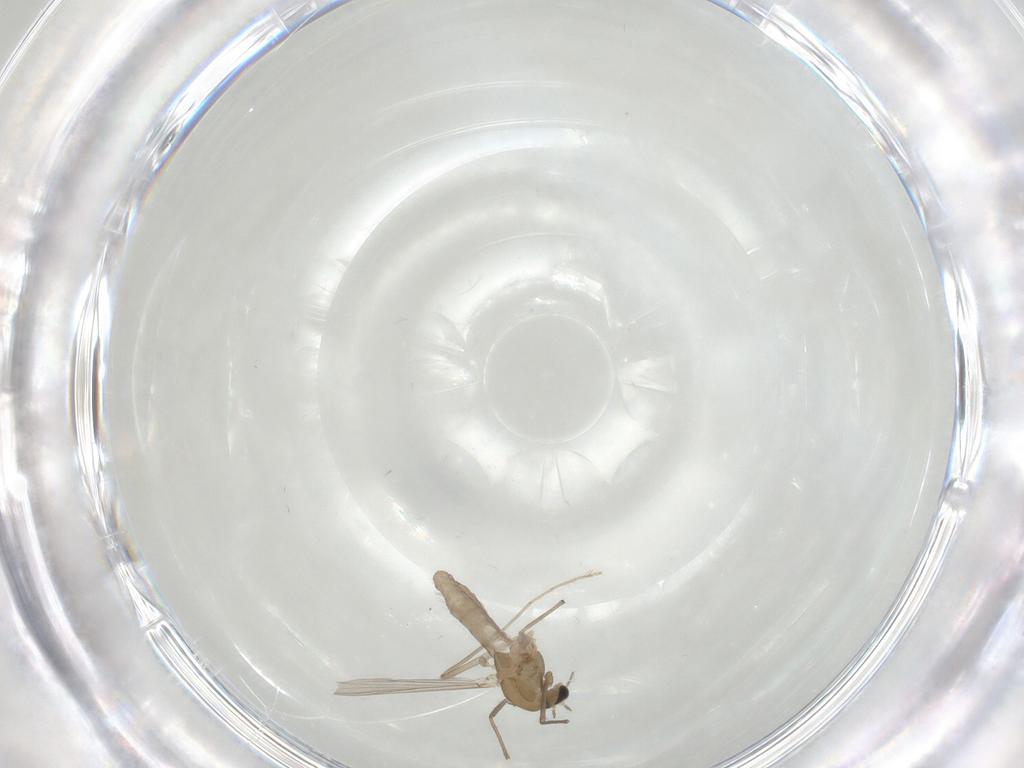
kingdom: Animalia
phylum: Arthropoda
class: Insecta
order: Diptera
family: Chironomidae
